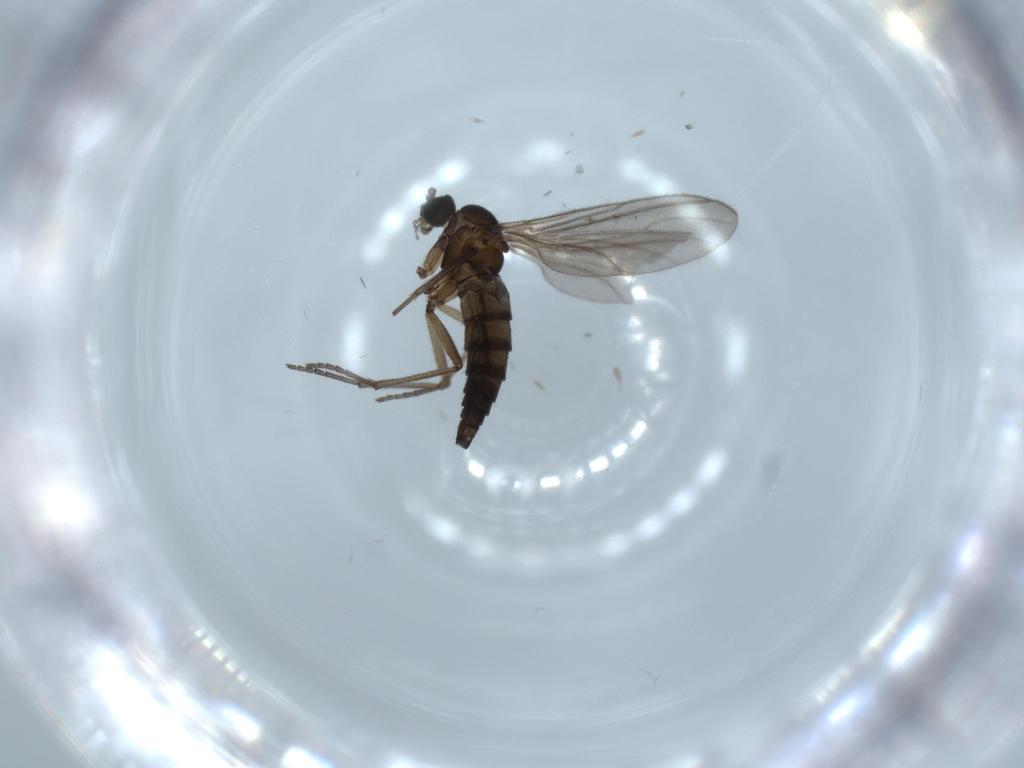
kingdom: Animalia
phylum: Arthropoda
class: Insecta
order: Diptera
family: Sciaridae
